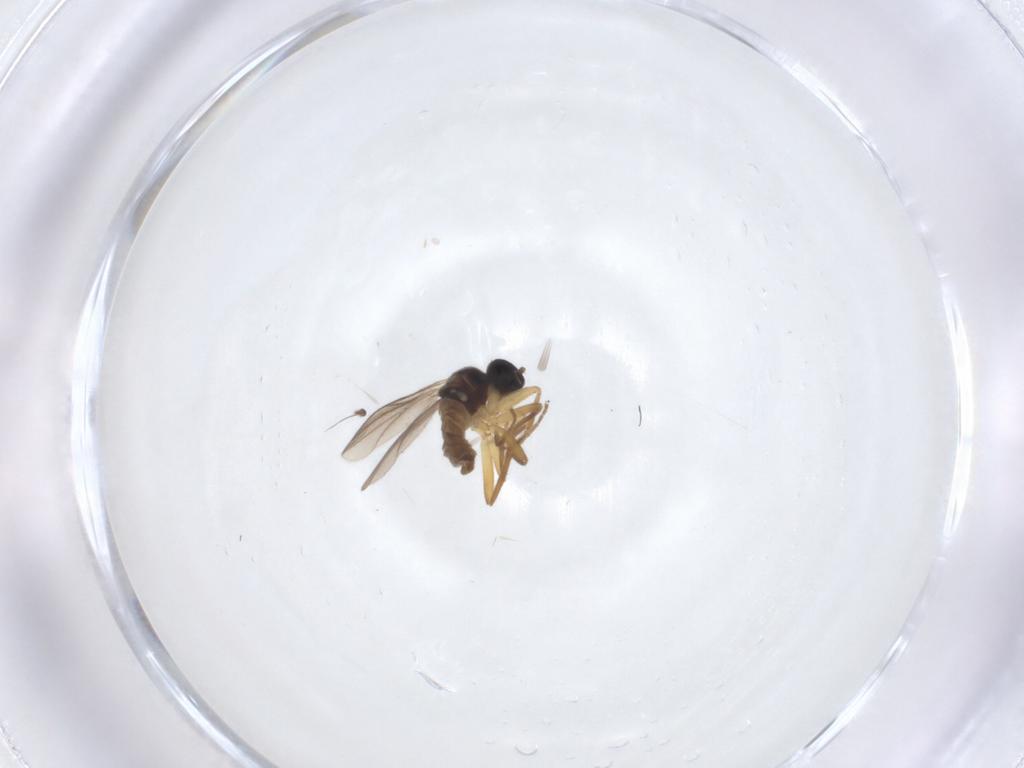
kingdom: Animalia
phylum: Arthropoda
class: Insecta
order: Diptera
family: Hybotidae
